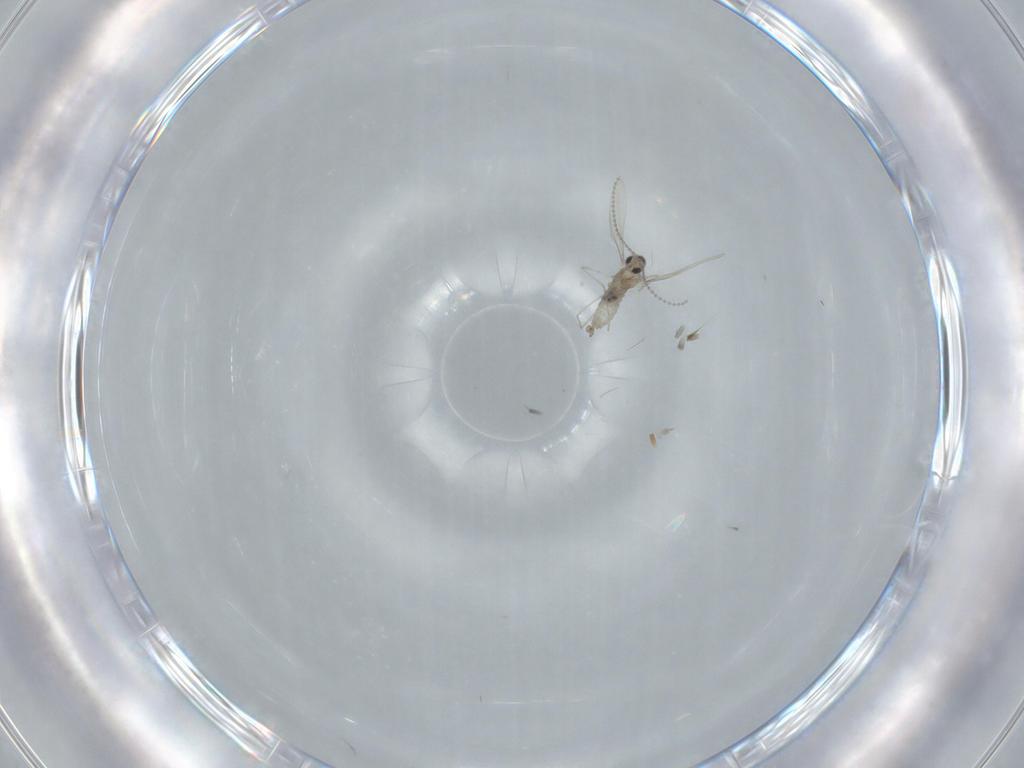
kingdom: Animalia
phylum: Arthropoda
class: Insecta
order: Diptera
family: Cecidomyiidae
